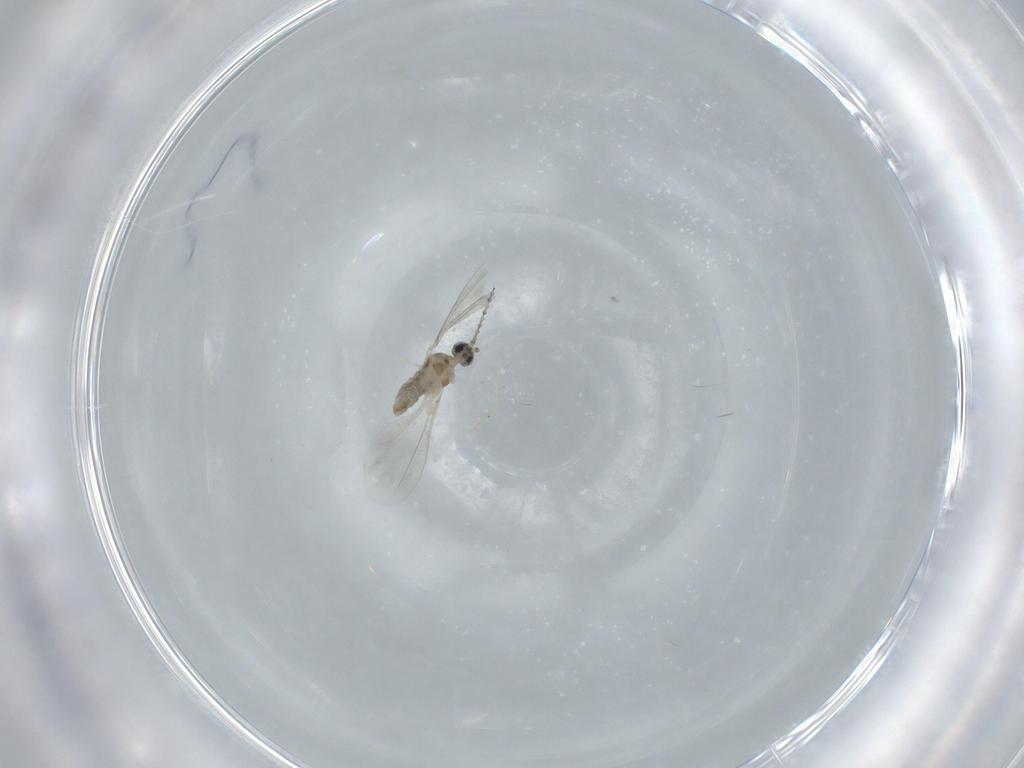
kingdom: Animalia
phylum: Arthropoda
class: Insecta
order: Diptera
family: Cecidomyiidae
